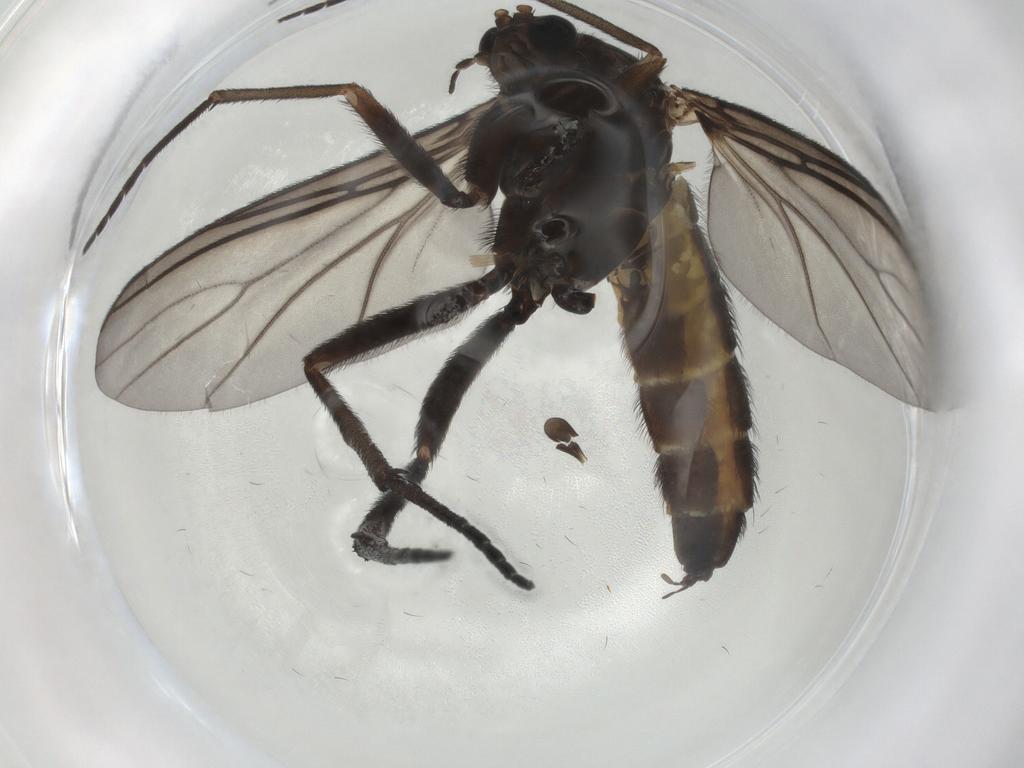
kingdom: Animalia
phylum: Arthropoda
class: Insecta
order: Diptera
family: Sciaridae
